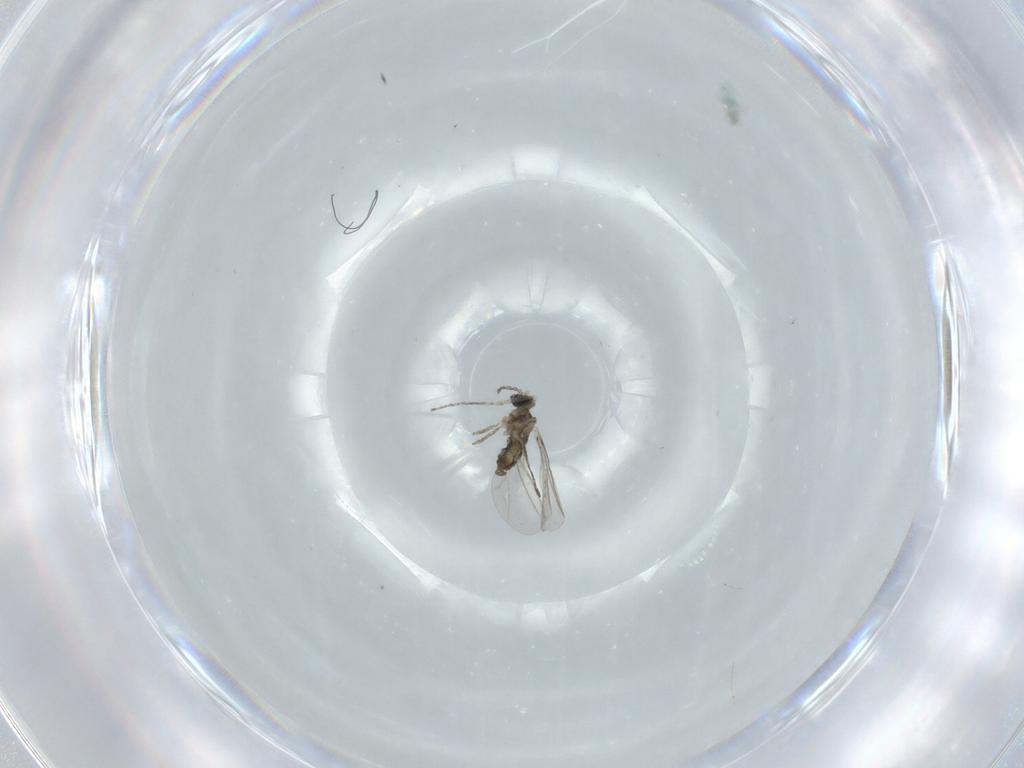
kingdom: Animalia
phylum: Arthropoda
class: Insecta
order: Diptera
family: Cecidomyiidae
